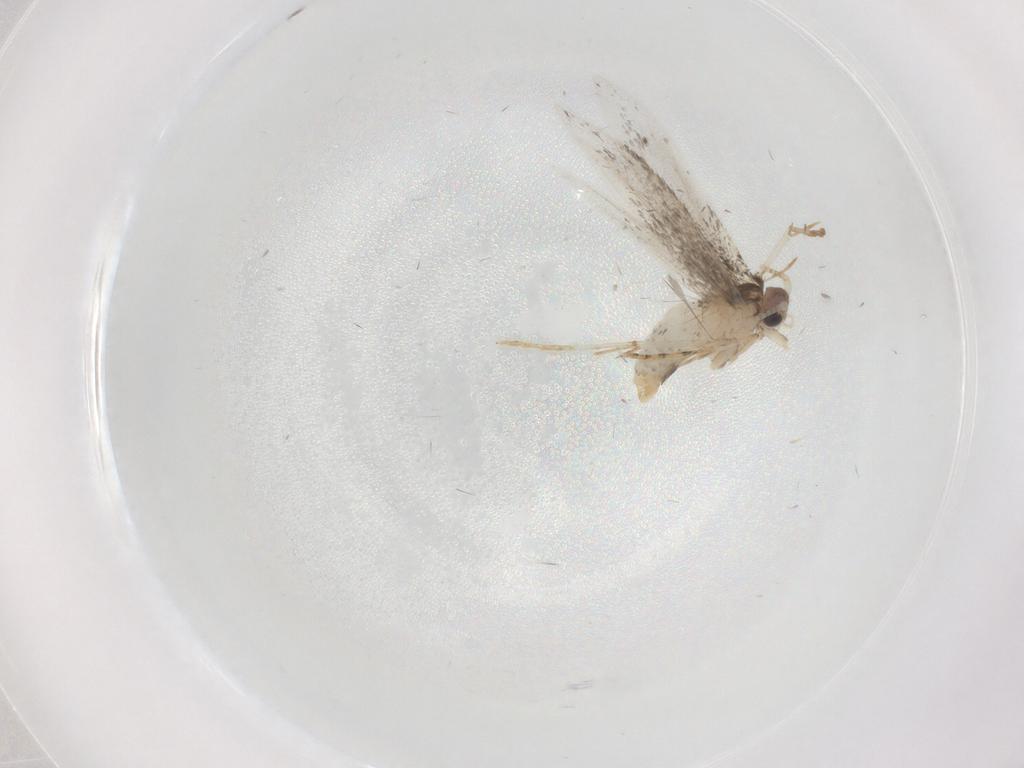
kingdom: Animalia
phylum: Arthropoda
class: Insecta
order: Lepidoptera
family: Tineidae
